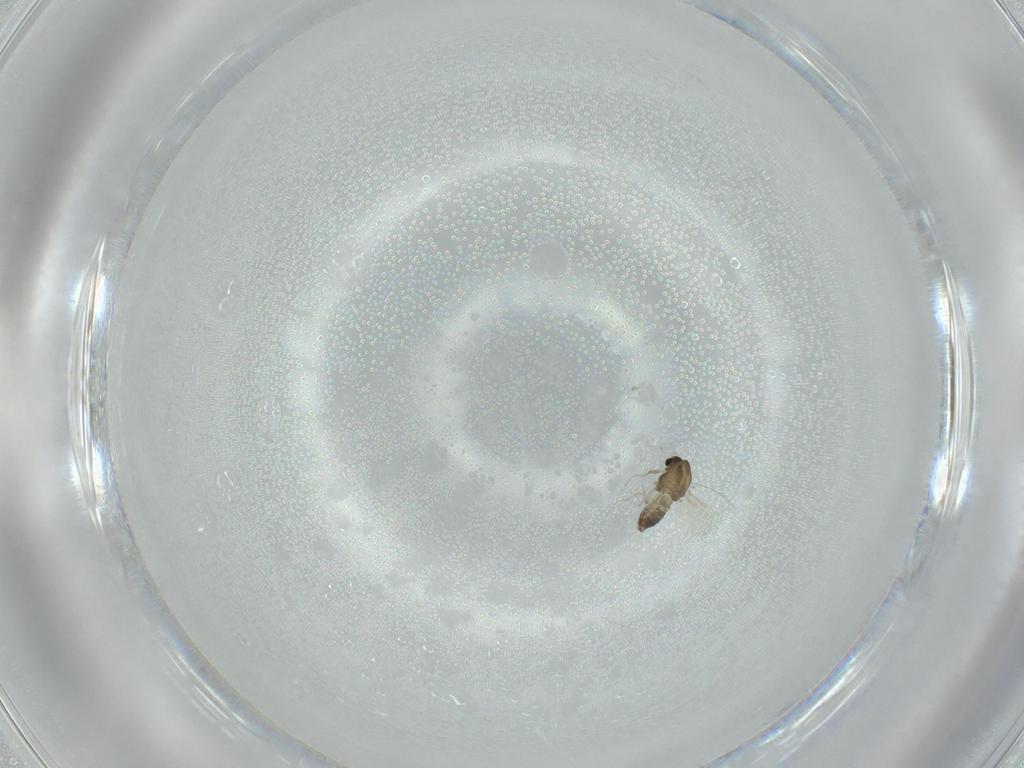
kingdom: Animalia
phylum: Arthropoda
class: Insecta
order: Diptera
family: Chironomidae
